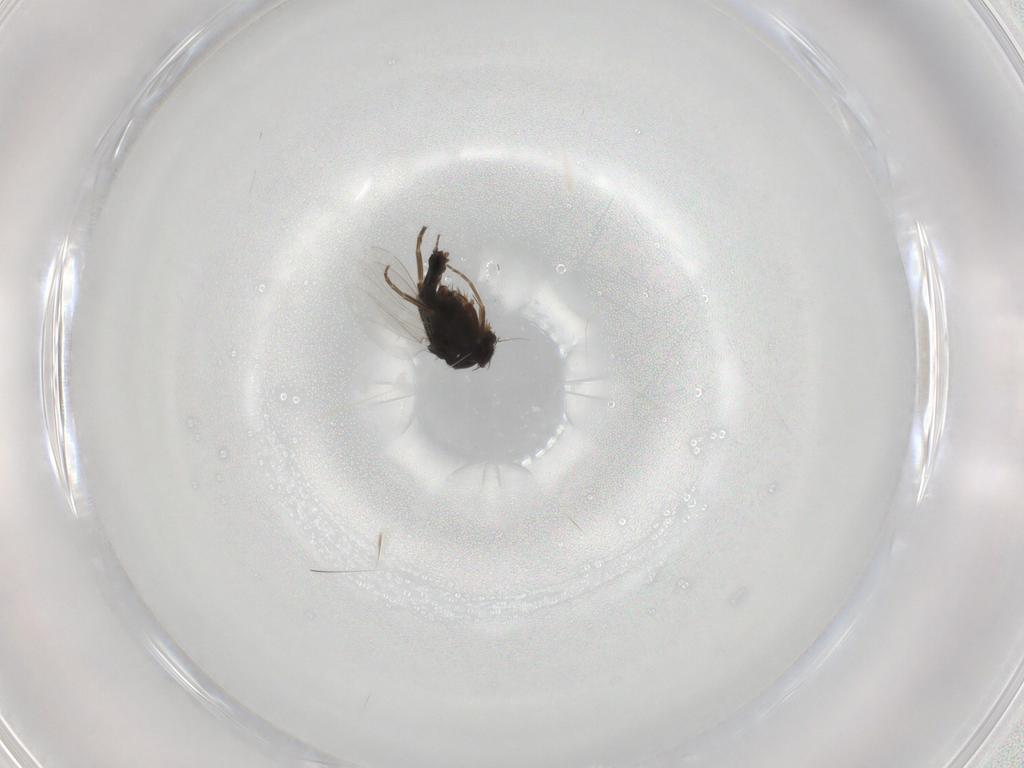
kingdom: Animalia
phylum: Arthropoda
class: Insecta
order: Diptera
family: Phoridae
